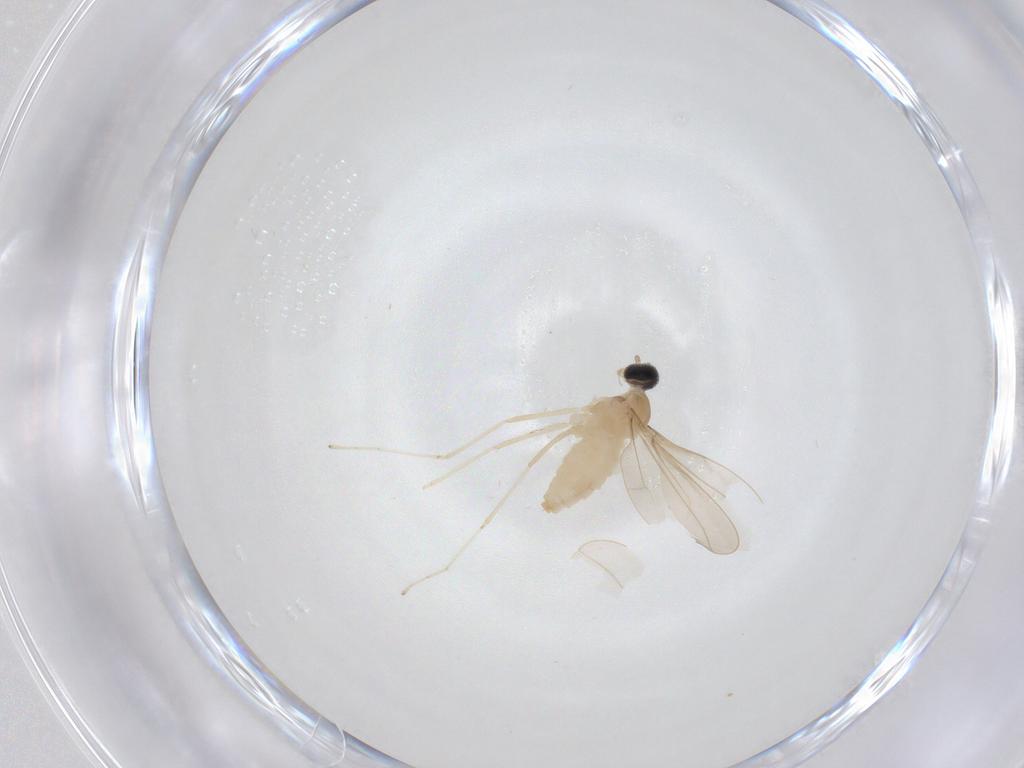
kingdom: Animalia
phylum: Arthropoda
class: Insecta
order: Diptera
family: Cecidomyiidae
